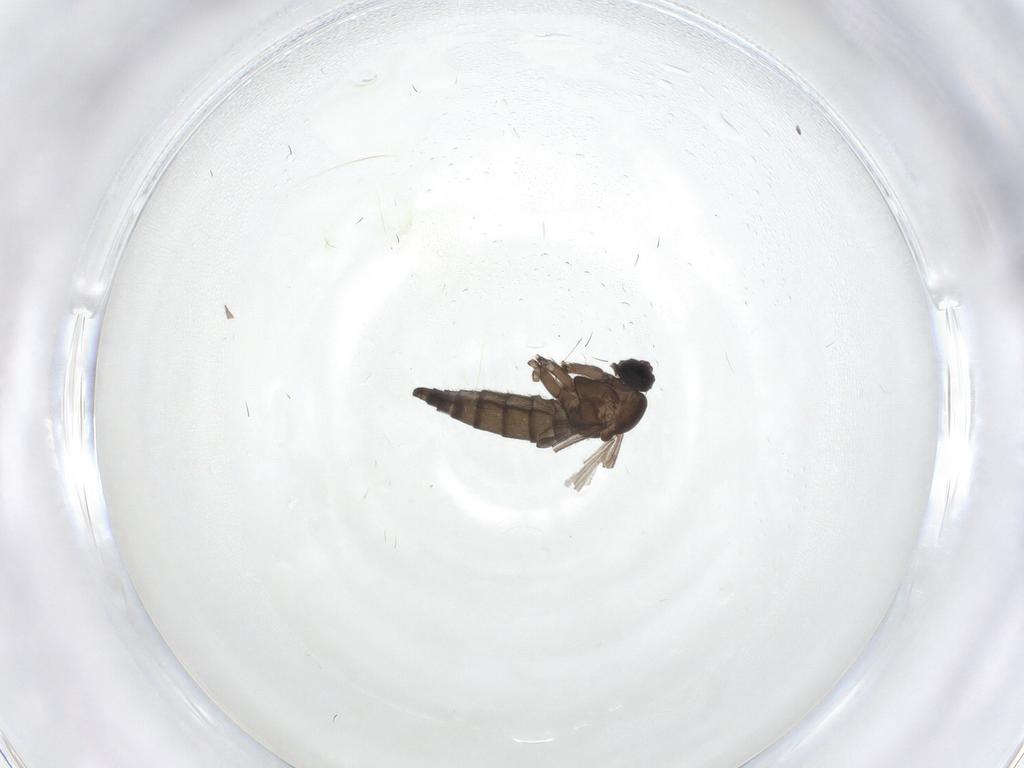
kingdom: Animalia
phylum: Arthropoda
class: Insecta
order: Diptera
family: Sciaridae
